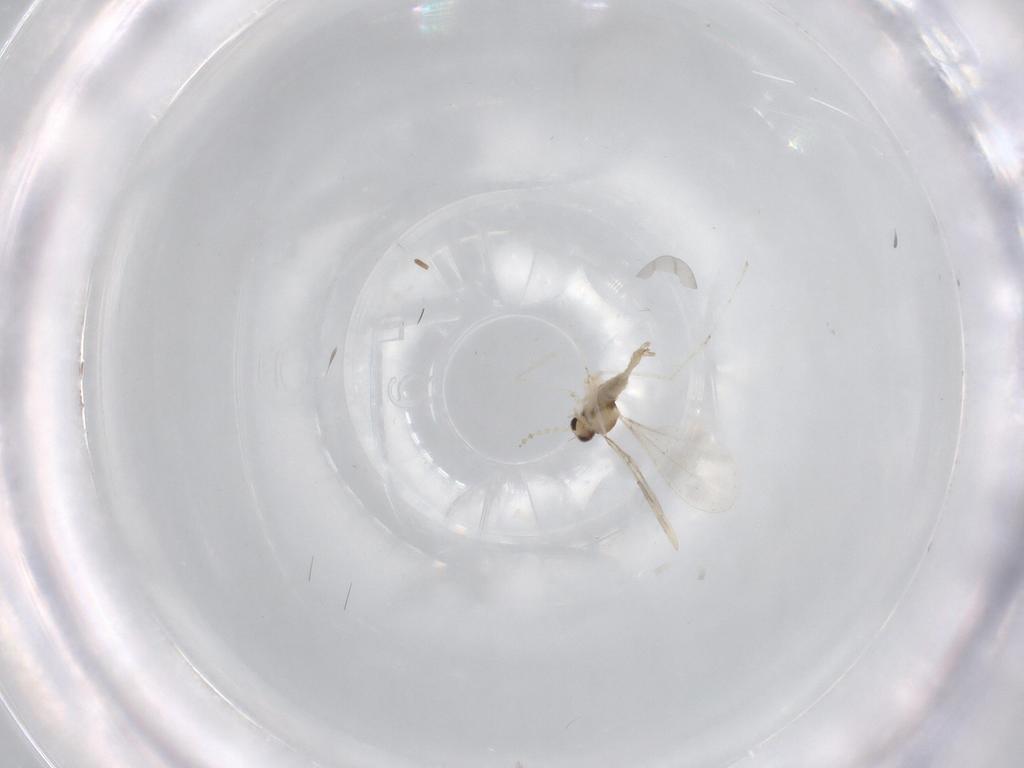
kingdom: Animalia
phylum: Arthropoda
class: Insecta
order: Diptera
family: Cecidomyiidae
